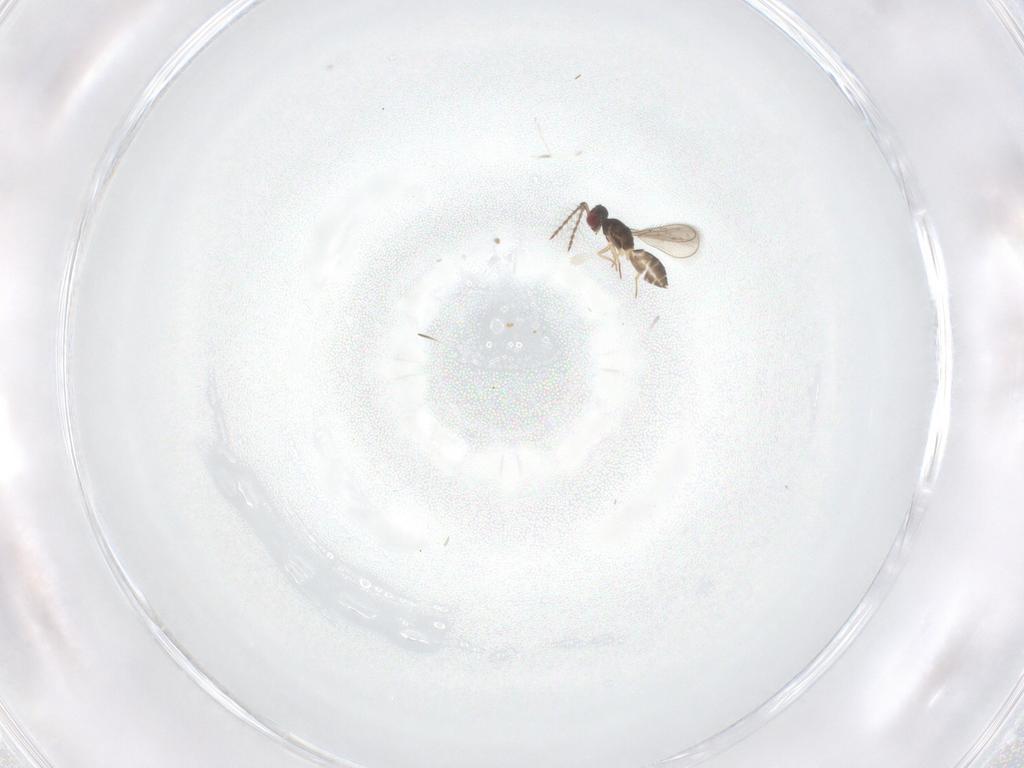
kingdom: Animalia
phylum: Arthropoda
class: Insecta
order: Hymenoptera
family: Eulophidae
